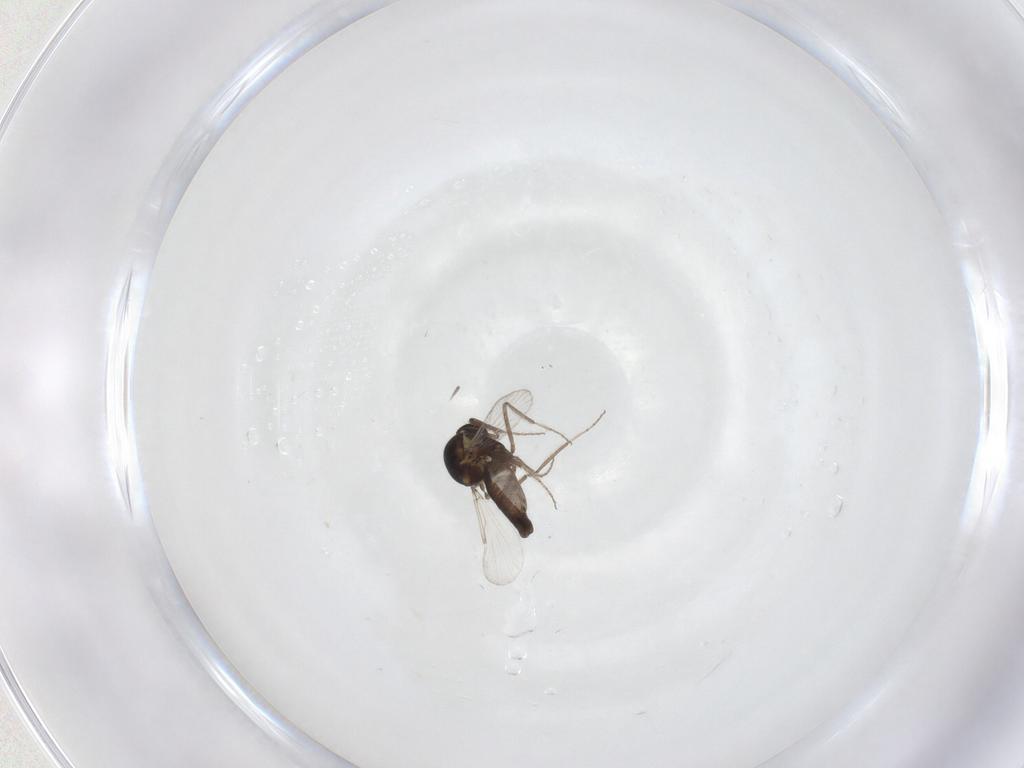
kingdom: Animalia
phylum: Arthropoda
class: Insecta
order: Diptera
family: Ceratopogonidae
